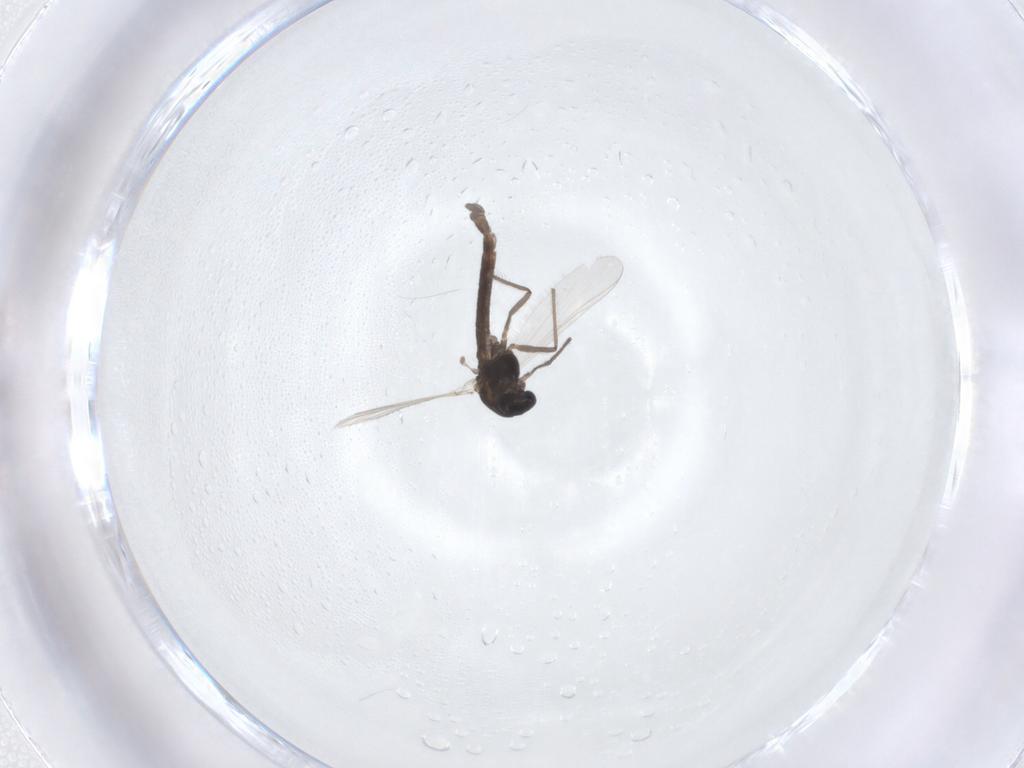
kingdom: Animalia
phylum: Arthropoda
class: Insecta
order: Diptera
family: Chironomidae
